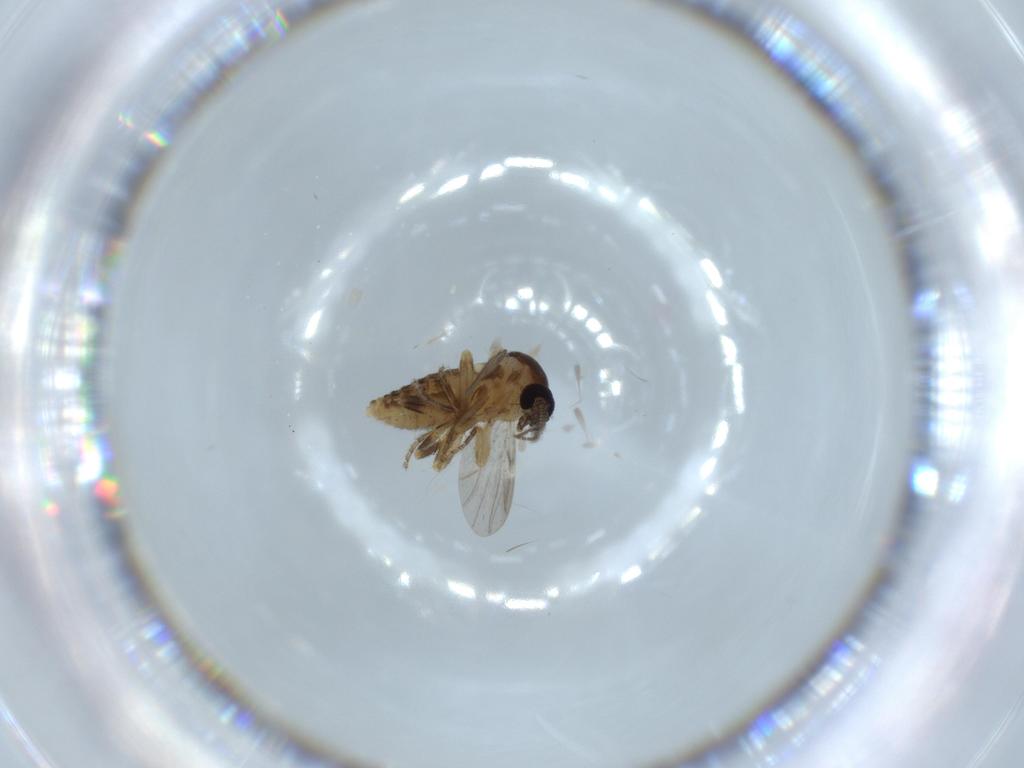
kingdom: Animalia
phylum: Arthropoda
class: Insecta
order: Diptera
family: Ceratopogonidae
